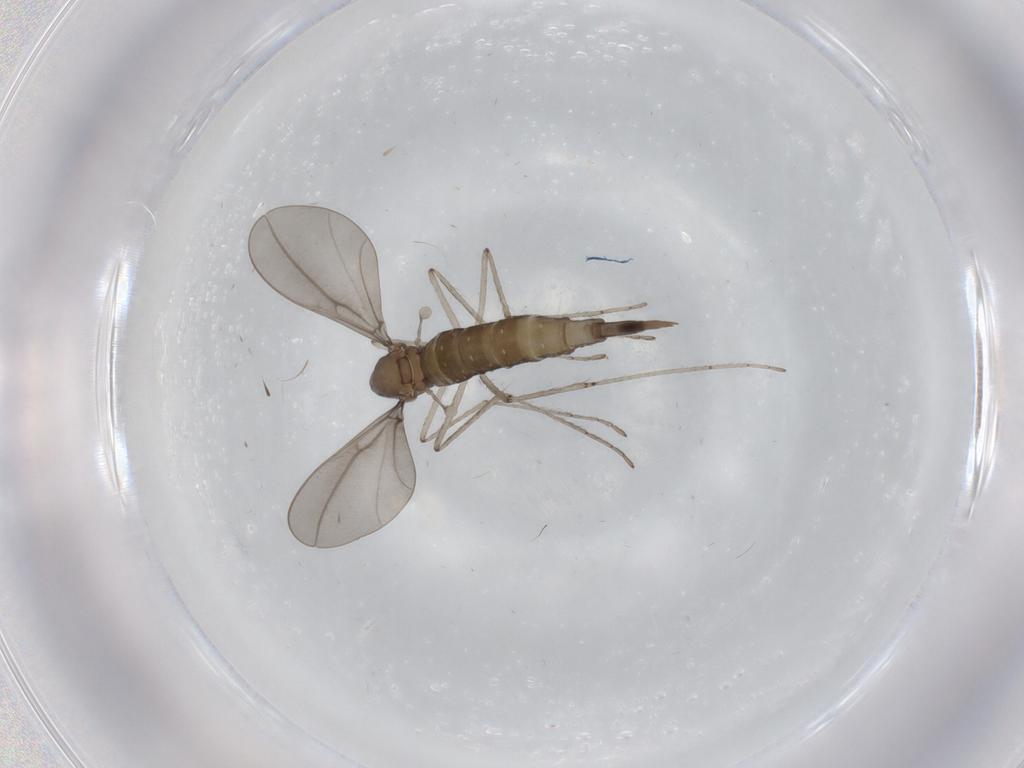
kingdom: Animalia
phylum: Arthropoda
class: Insecta
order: Diptera
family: Cecidomyiidae
